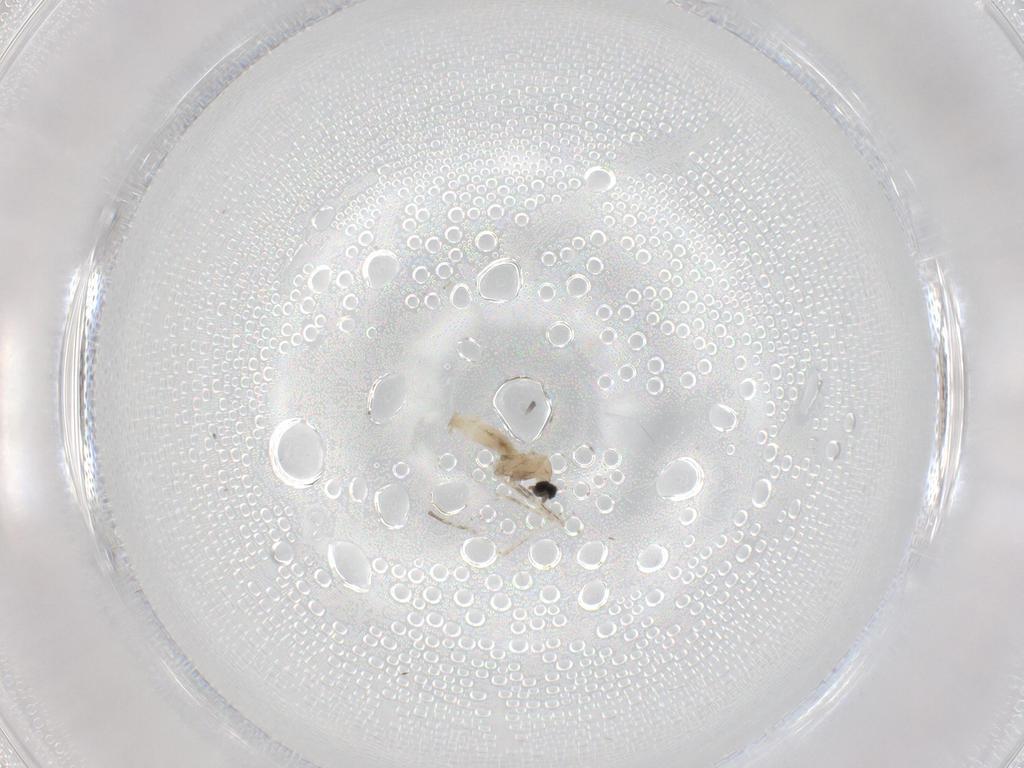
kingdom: Animalia
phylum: Arthropoda
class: Insecta
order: Diptera
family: Cecidomyiidae
